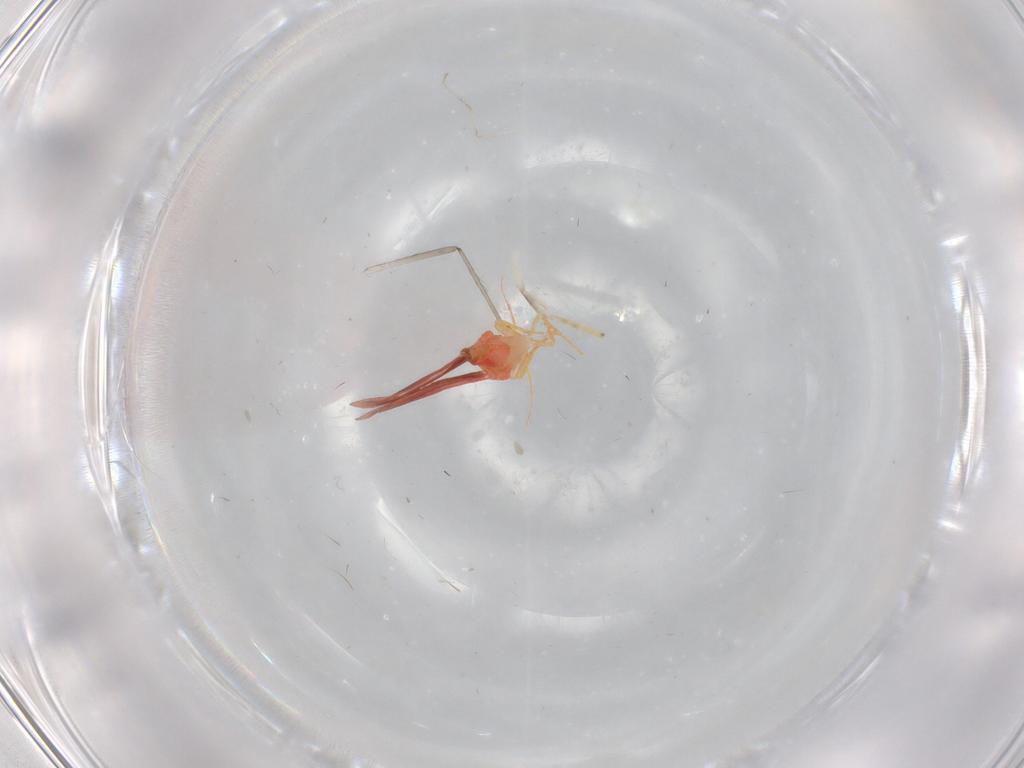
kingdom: Animalia
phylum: Arthropoda
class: Insecta
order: Hemiptera
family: Aleyrodidae
